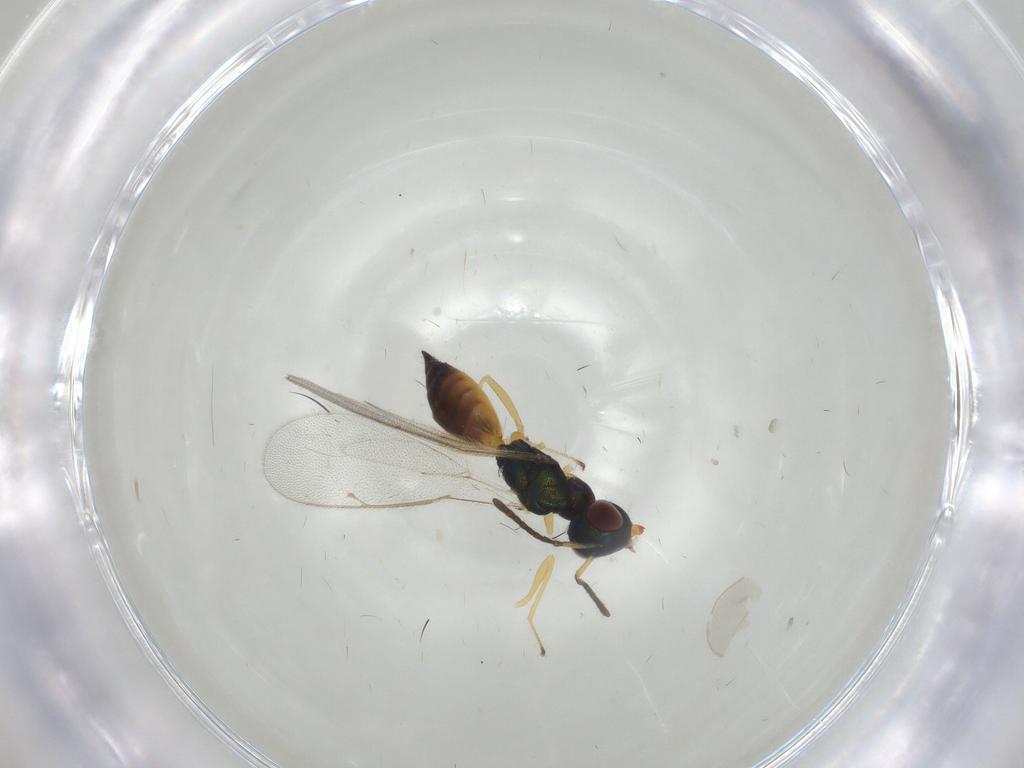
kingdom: Animalia
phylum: Arthropoda
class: Insecta
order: Hymenoptera
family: Pteromalidae
